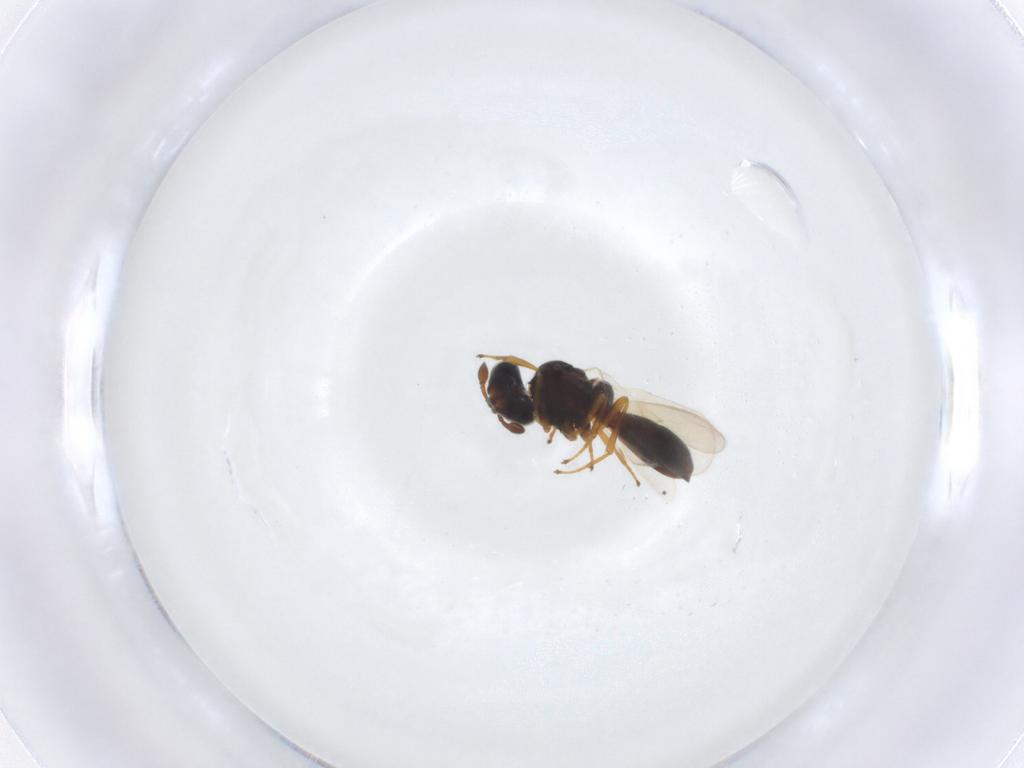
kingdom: Animalia
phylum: Arthropoda
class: Insecta
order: Hymenoptera
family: Scelionidae
